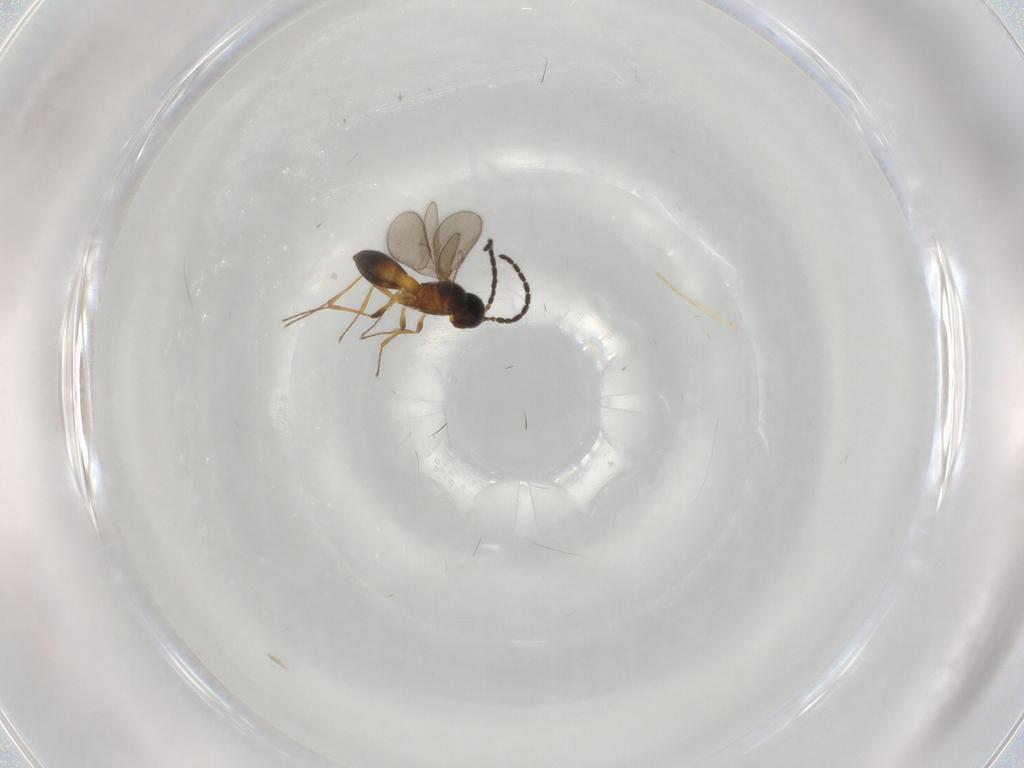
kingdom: Animalia
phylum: Arthropoda
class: Insecta
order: Hymenoptera
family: Scelionidae
